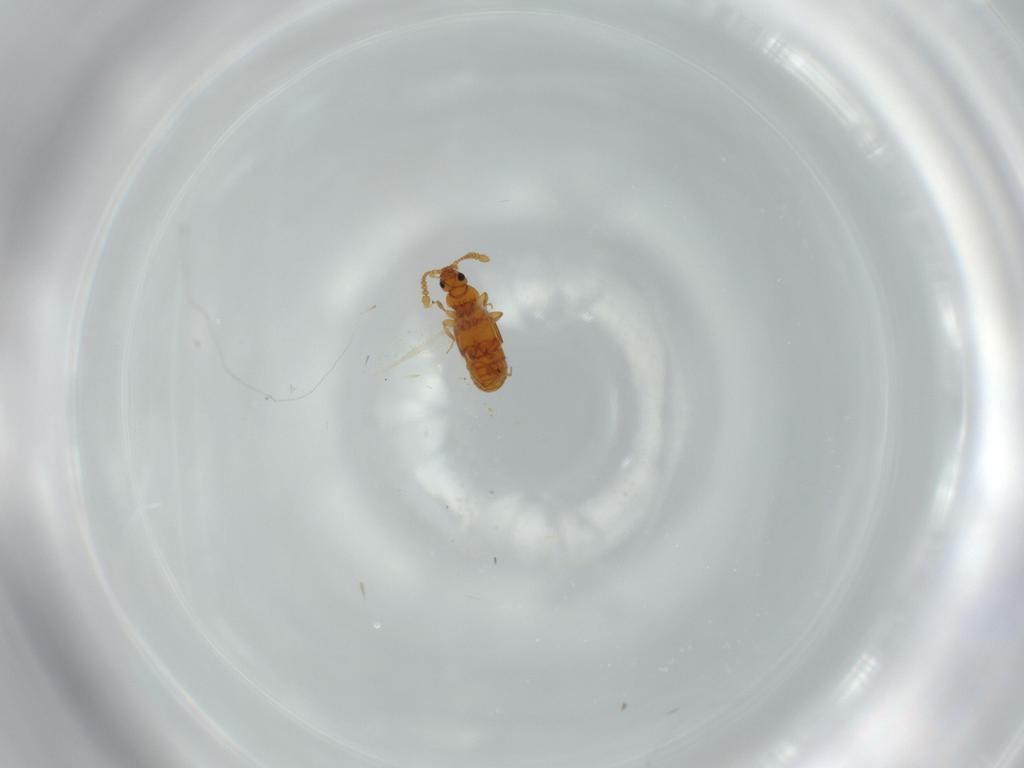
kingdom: Animalia
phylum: Arthropoda
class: Insecta
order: Coleoptera
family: Staphylinidae
